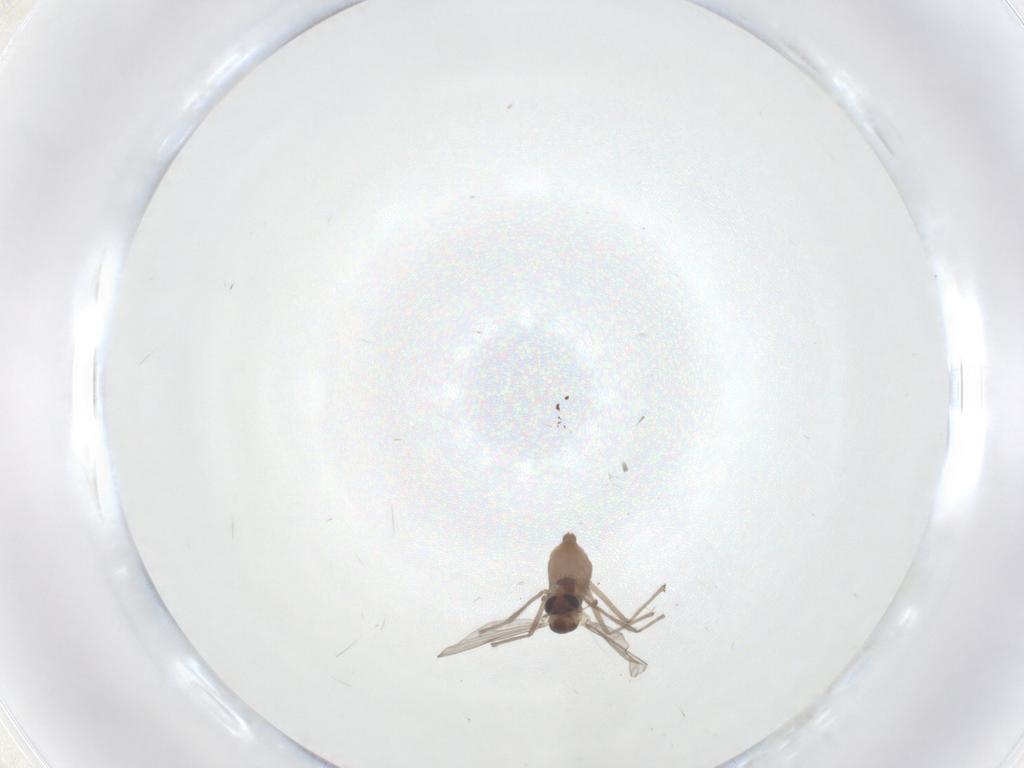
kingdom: Animalia
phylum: Arthropoda
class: Insecta
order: Diptera
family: Chironomidae
